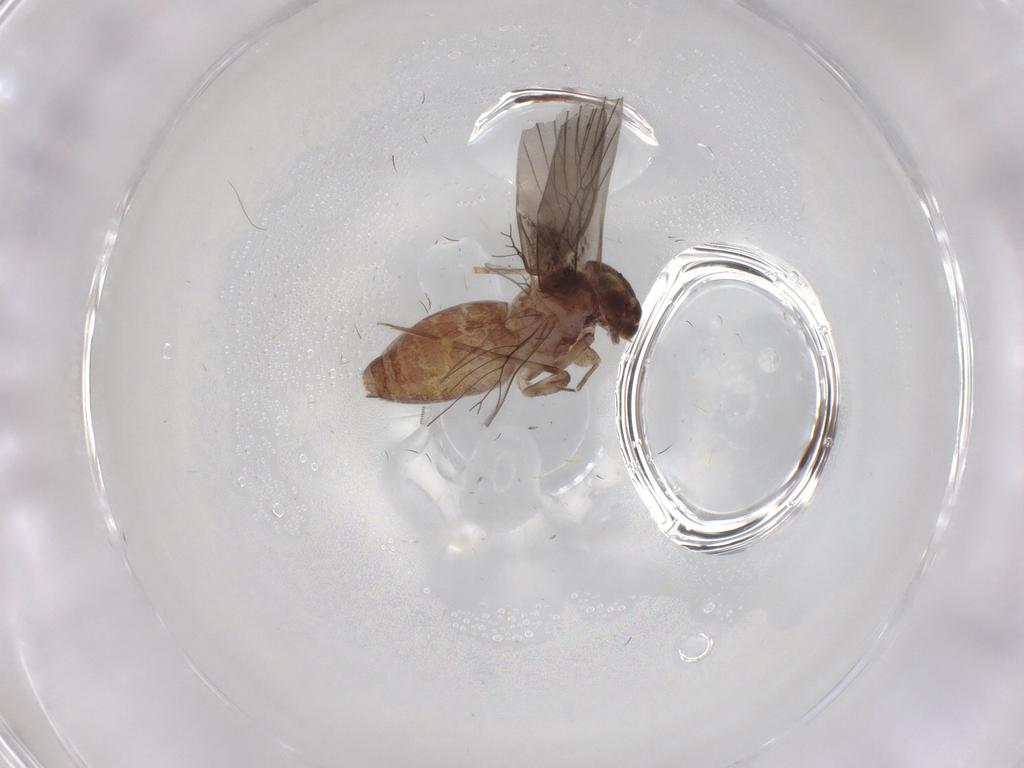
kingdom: Animalia
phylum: Arthropoda
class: Insecta
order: Psocodea
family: Lepidopsocidae
